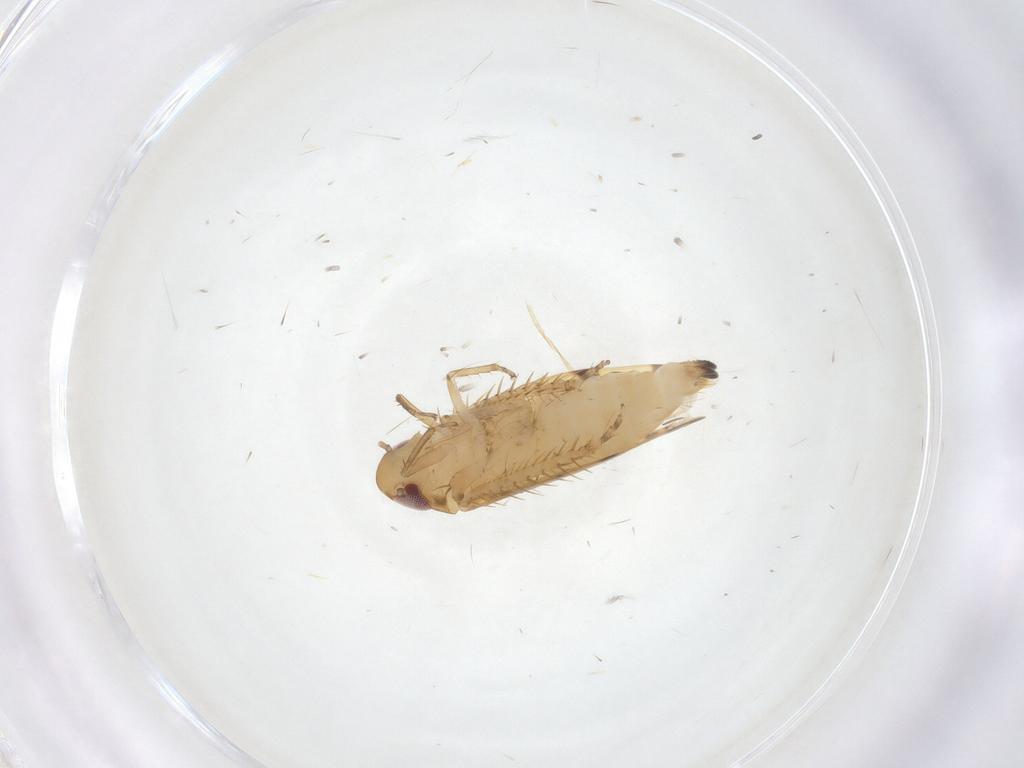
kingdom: Animalia
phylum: Arthropoda
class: Insecta
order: Hemiptera
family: Cicadellidae
